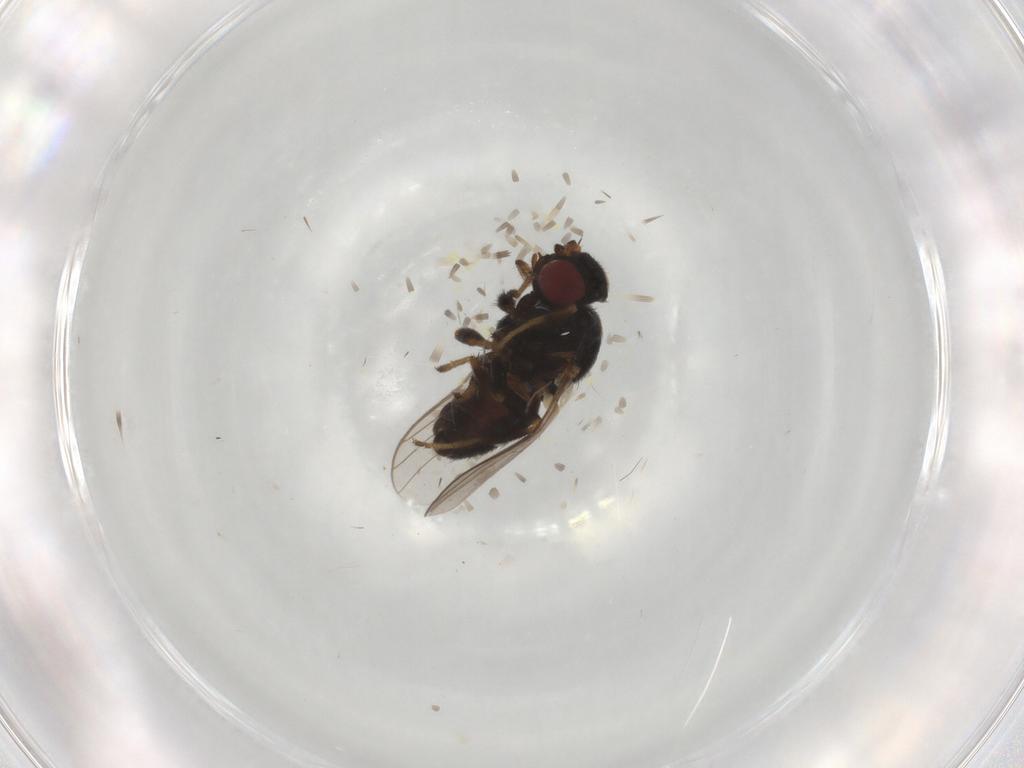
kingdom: Animalia
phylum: Arthropoda
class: Insecta
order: Diptera
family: Chloropidae
